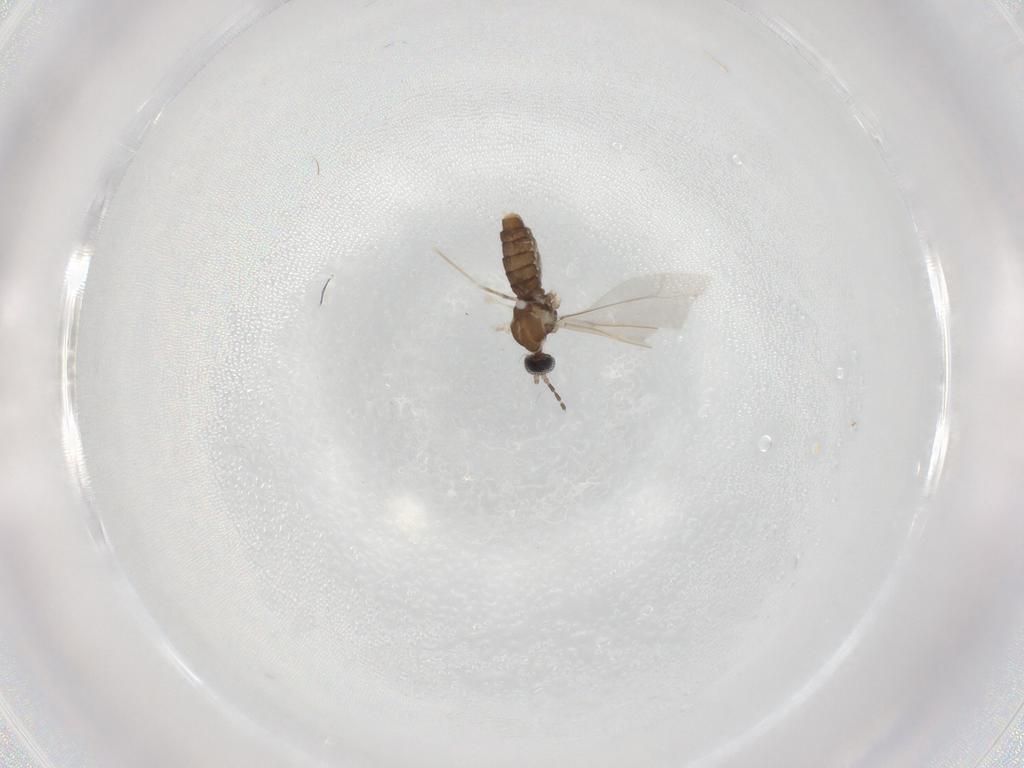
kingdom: Animalia
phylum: Arthropoda
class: Insecta
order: Diptera
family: Cecidomyiidae
